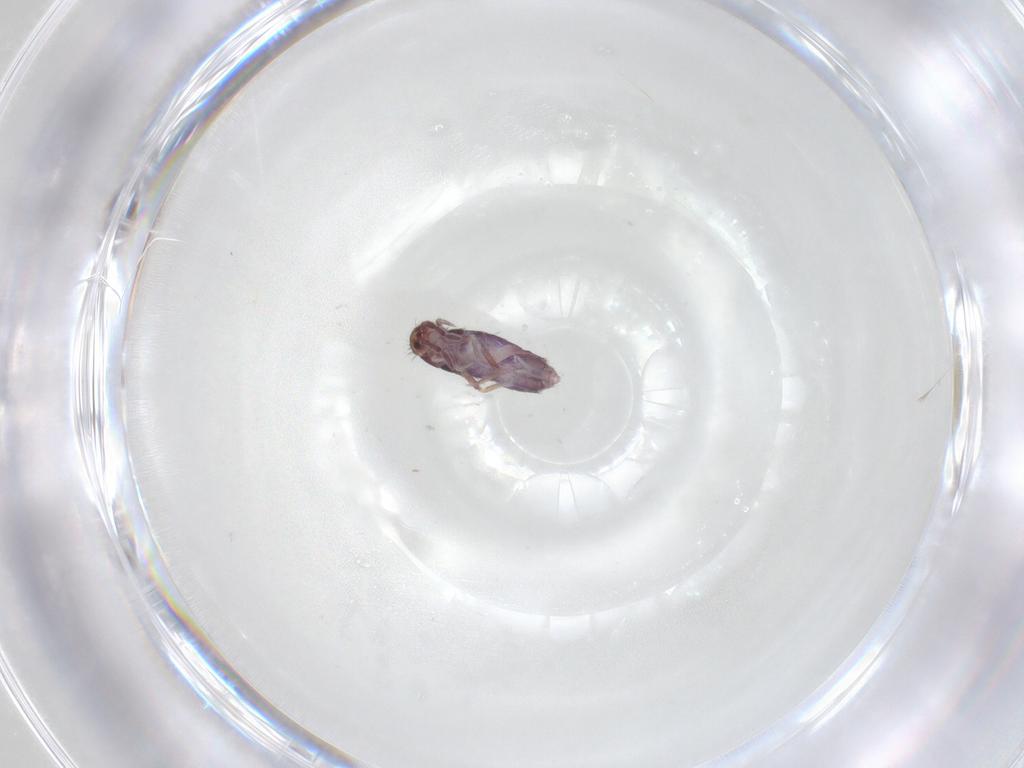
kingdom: Animalia
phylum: Arthropoda
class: Collembola
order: Entomobryomorpha
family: Entomobryidae
